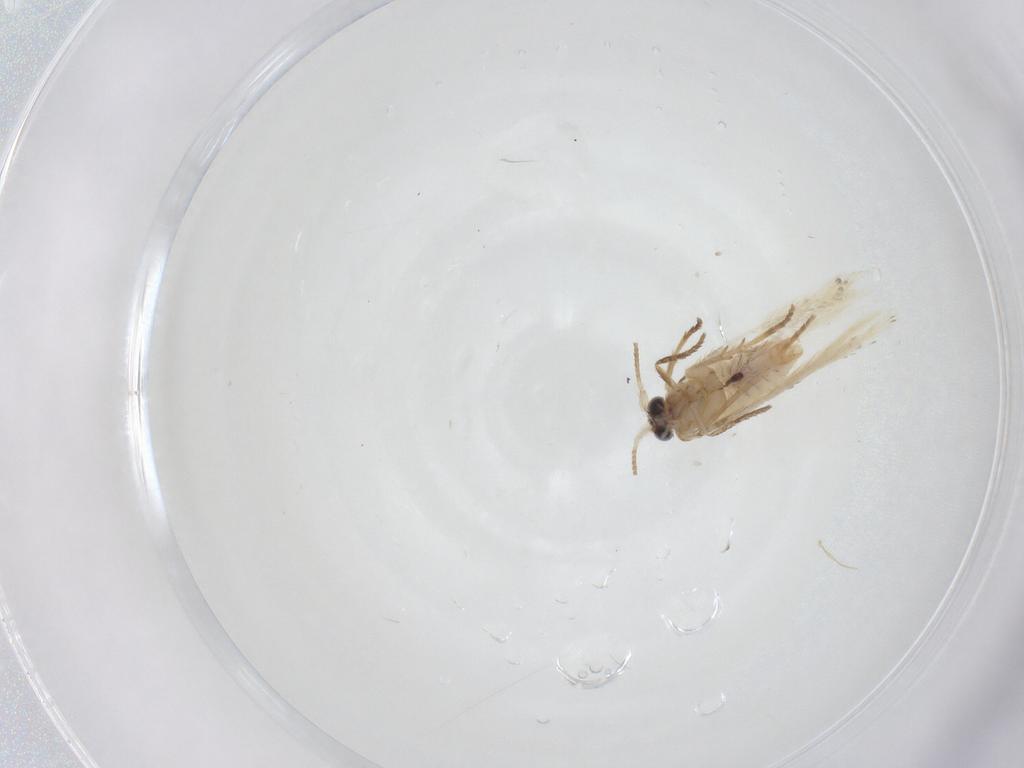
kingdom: Animalia
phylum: Arthropoda
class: Insecta
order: Lepidoptera
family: Nepticulidae
